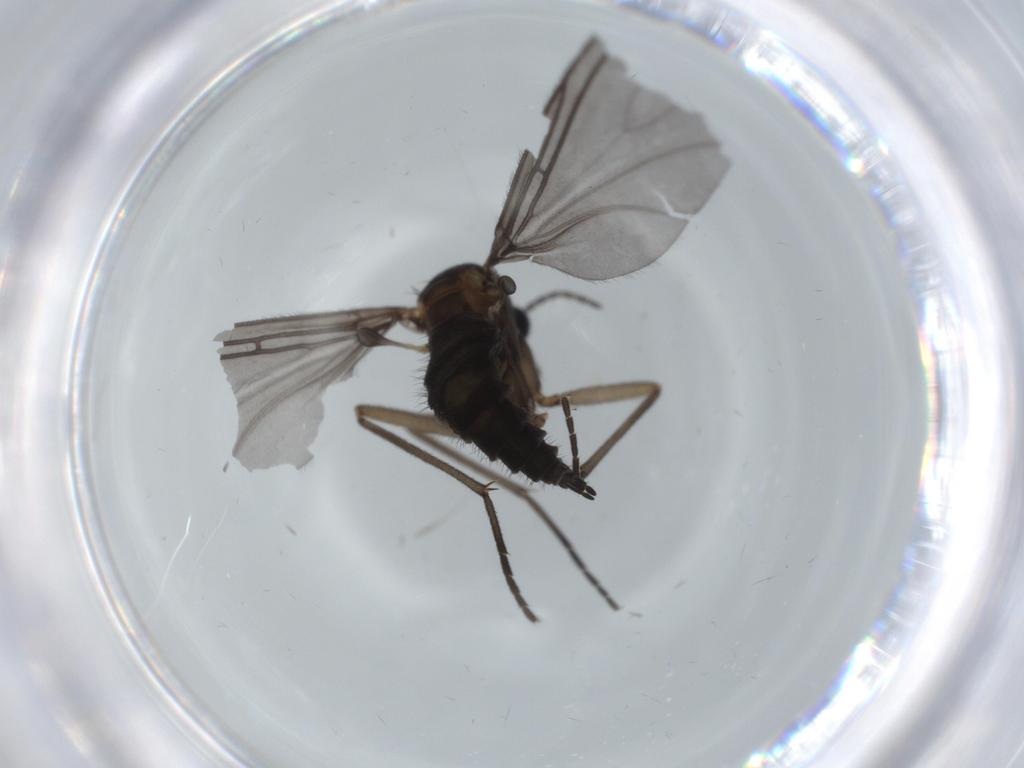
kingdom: Animalia
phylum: Arthropoda
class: Insecta
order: Diptera
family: Sciaridae
